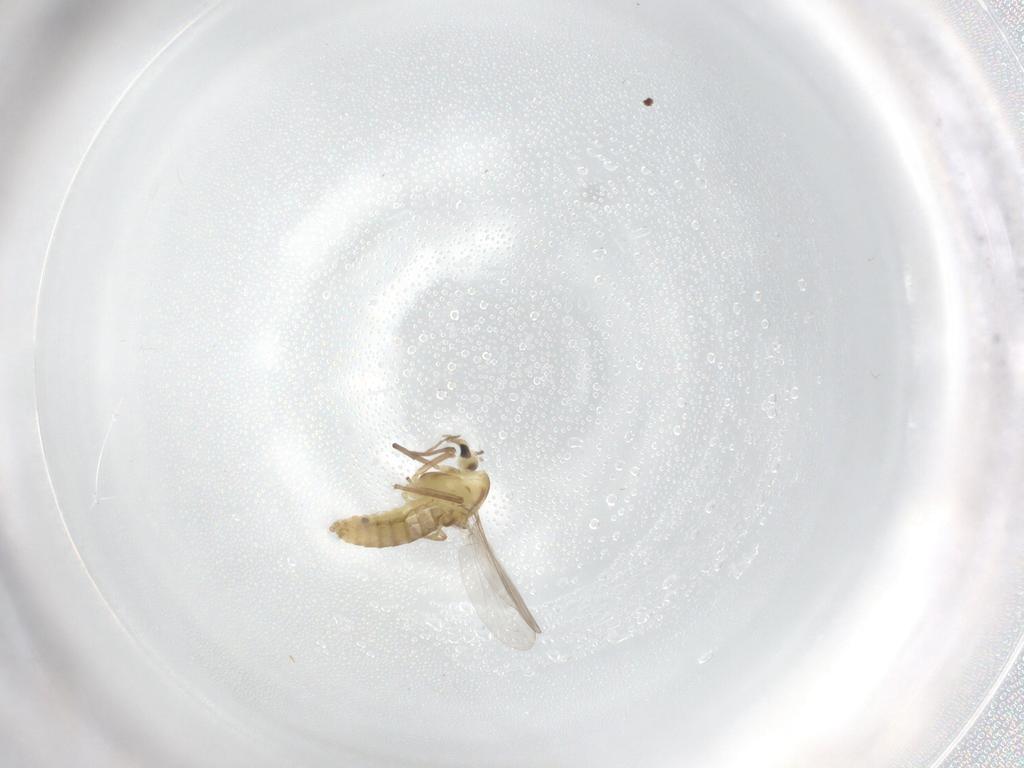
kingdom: Animalia
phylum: Arthropoda
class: Insecta
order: Diptera
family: Chironomidae
